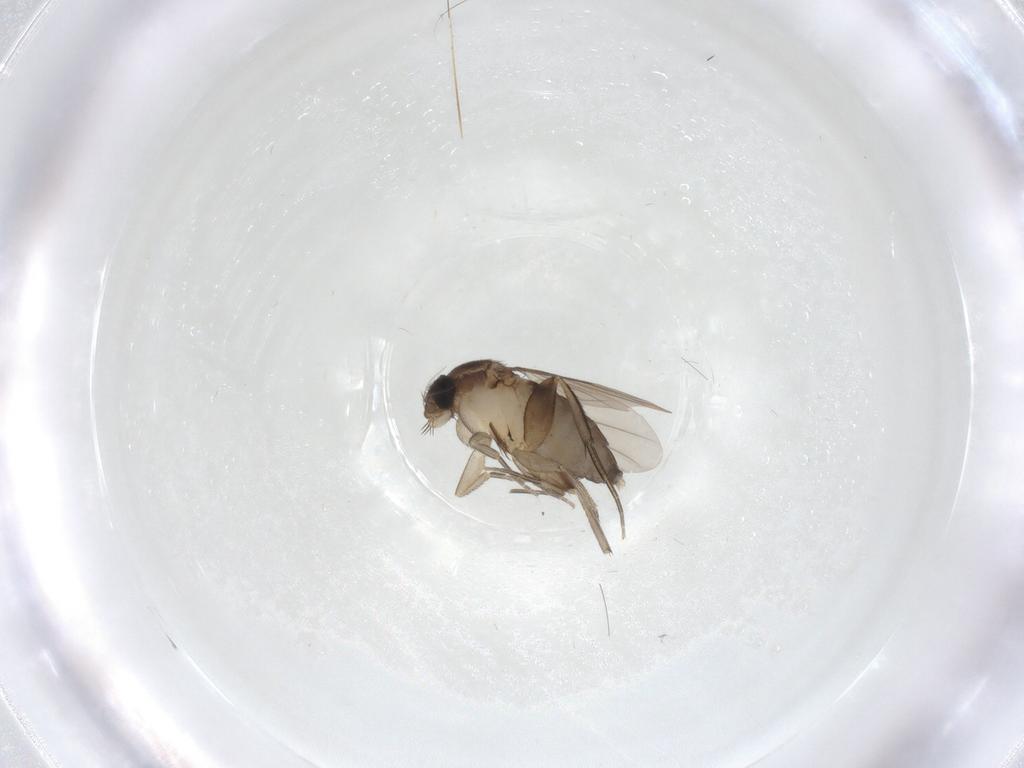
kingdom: Animalia
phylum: Arthropoda
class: Insecta
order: Diptera
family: Phoridae
